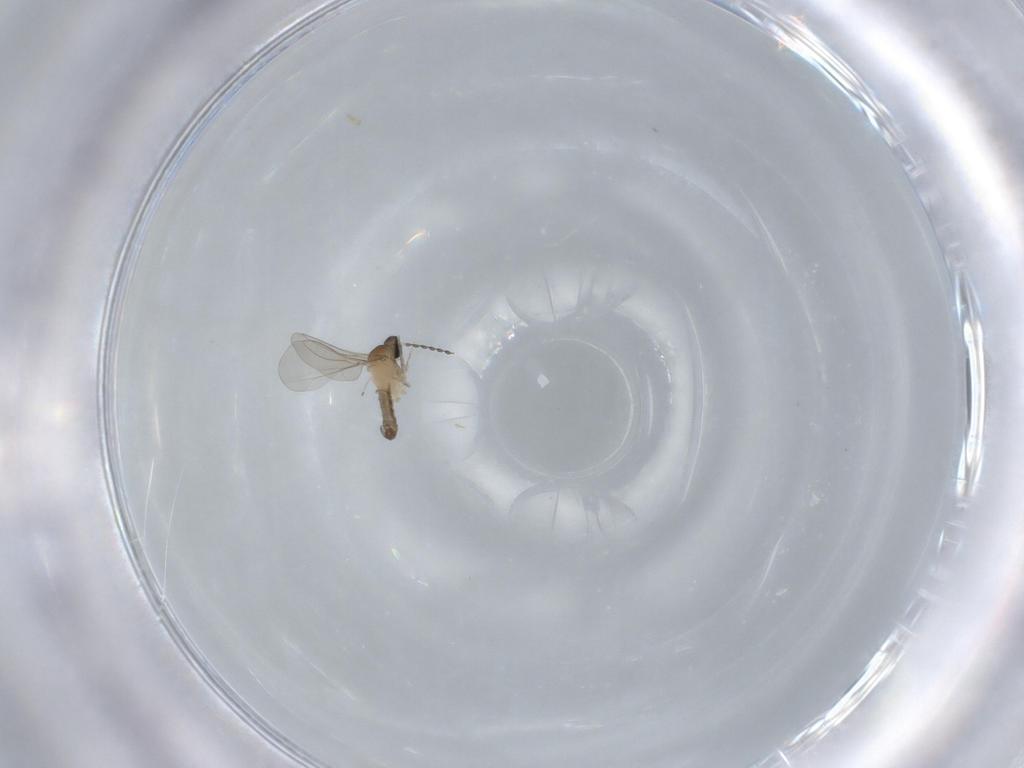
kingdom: Animalia
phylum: Arthropoda
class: Insecta
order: Diptera
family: Cecidomyiidae
